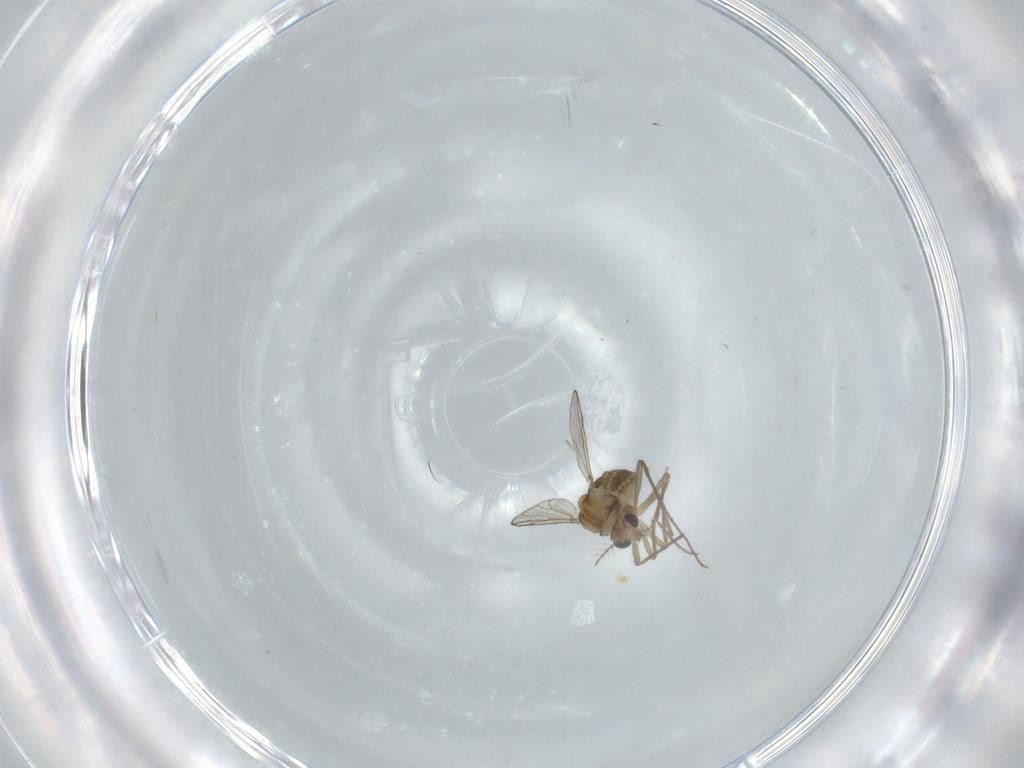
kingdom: Animalia
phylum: Arthropoda
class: Insecta
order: Diptera
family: Chironomidae
